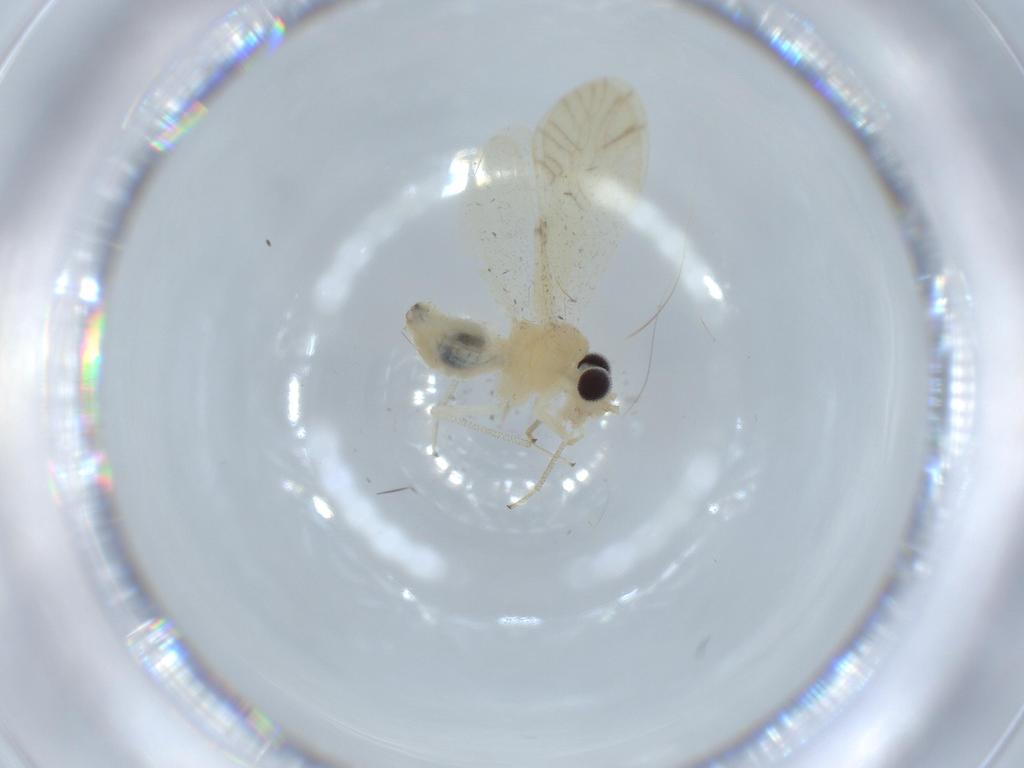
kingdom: Animalia
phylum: Arthropoda
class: Insecta
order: Psocodea
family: Caeciliusidae
